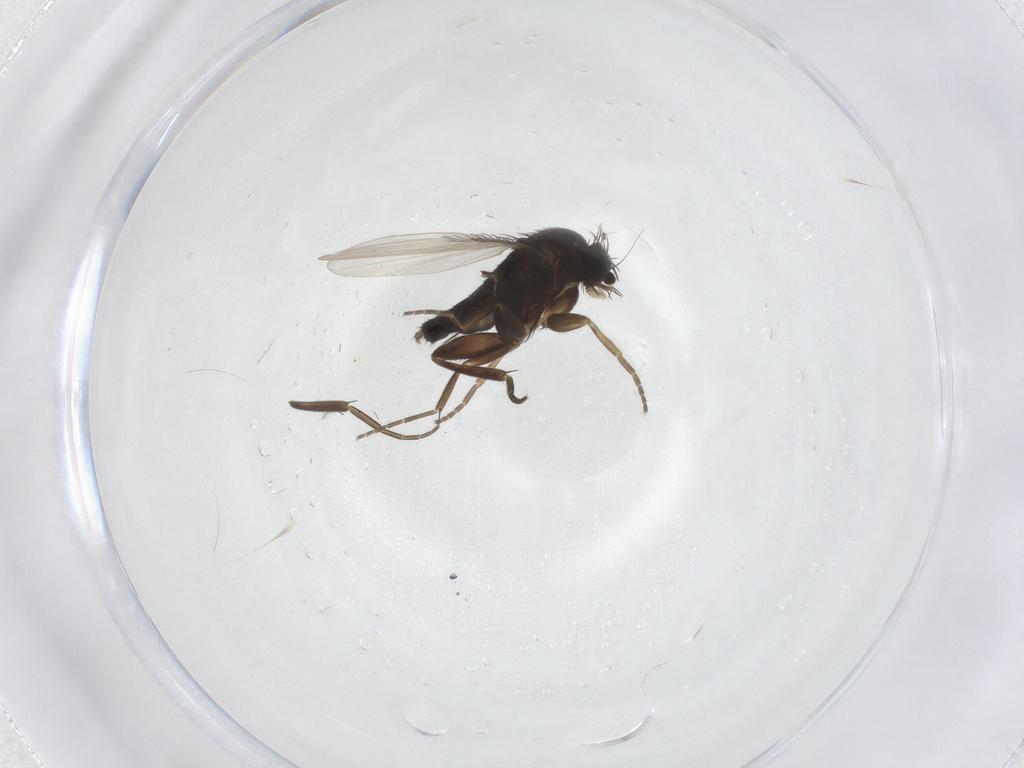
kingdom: Animalia
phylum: Arthropoda
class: Insecta
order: Diptera
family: Phoridae
